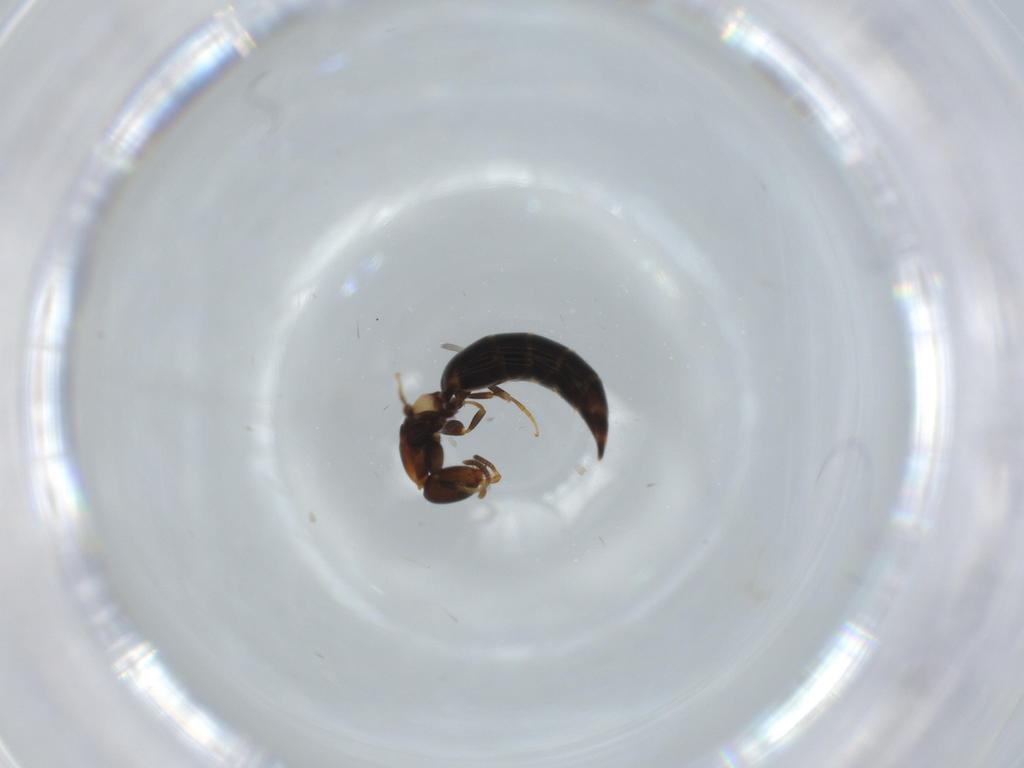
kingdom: Animalia
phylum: Arthropoda
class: Insecta
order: Hymenoptera
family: Bethylidae
